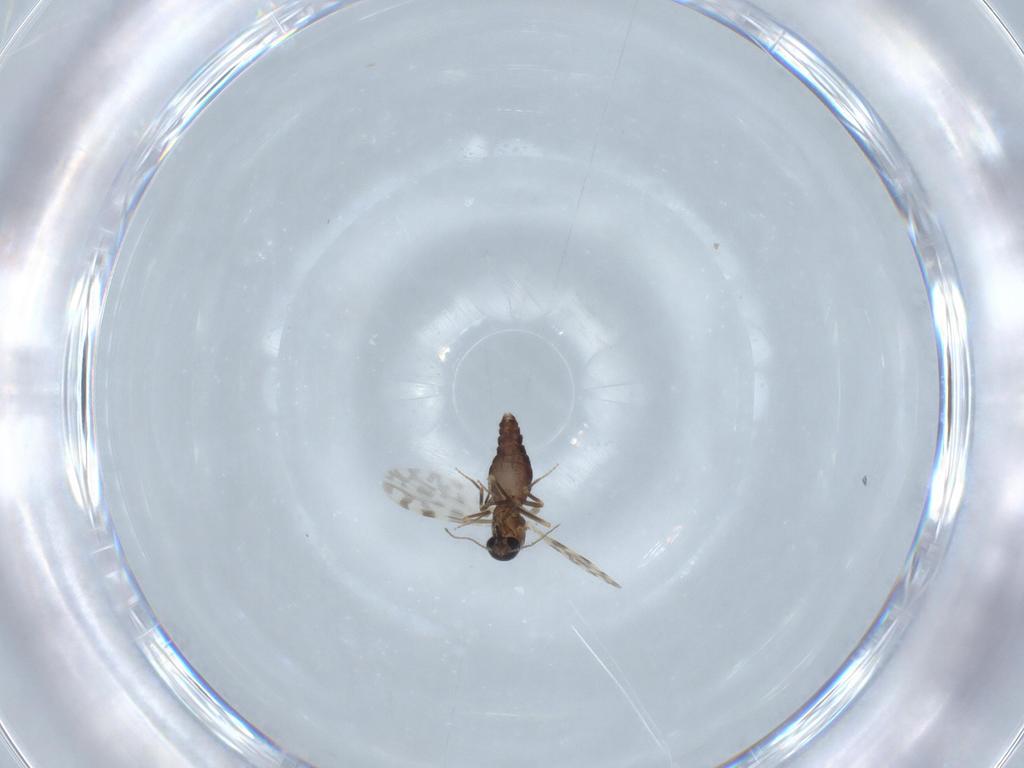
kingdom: Animalia
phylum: Arthropoda
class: Insecta
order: Diptera
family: Ceratopogonidae
